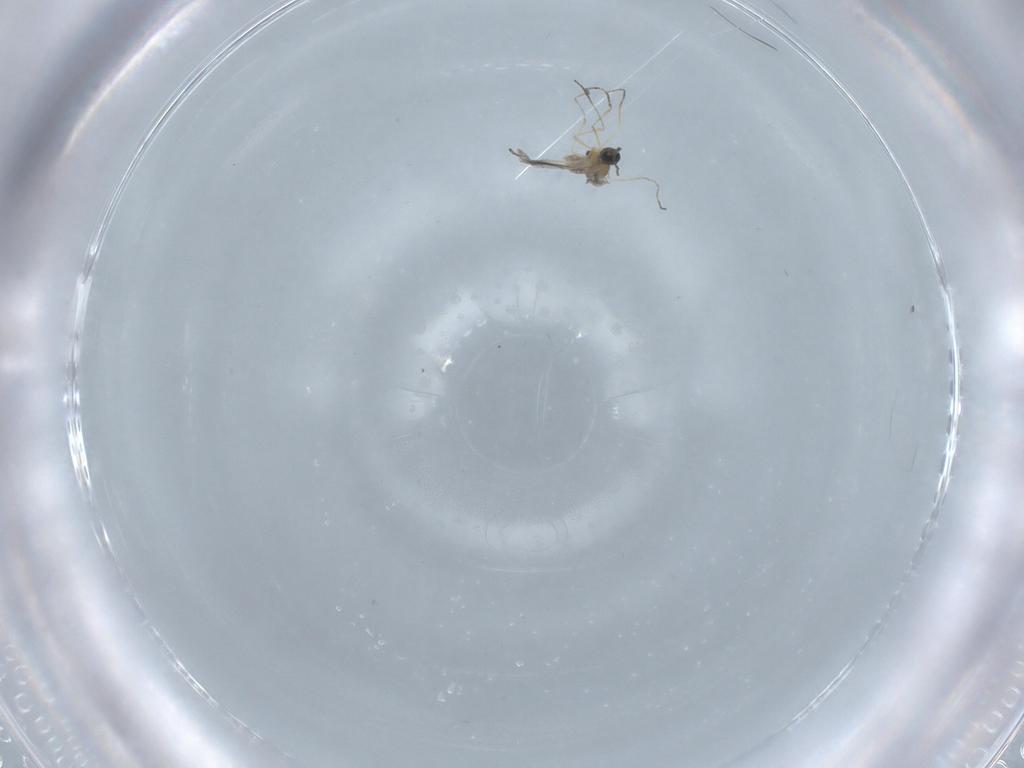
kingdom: Animalia
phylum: Arthropoda
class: Insecta
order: Diptera
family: Cecidomyiidae
